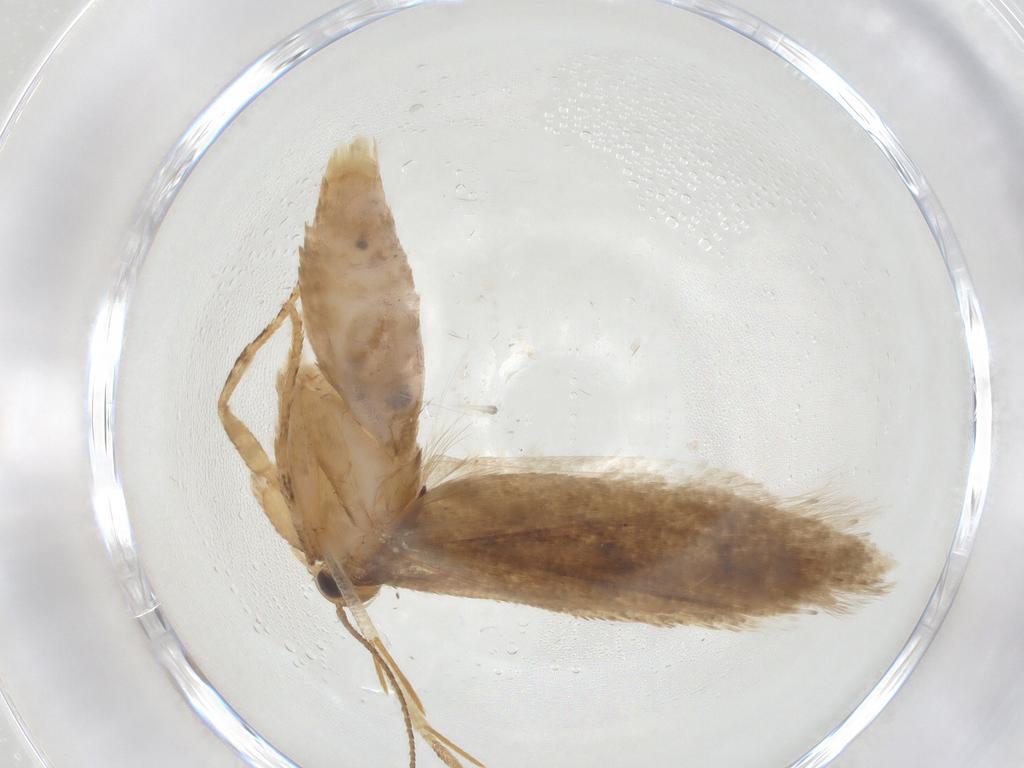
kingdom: Animalia
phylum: Arthropoda
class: Insecta
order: Lepidoptera
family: Gelechiidae
